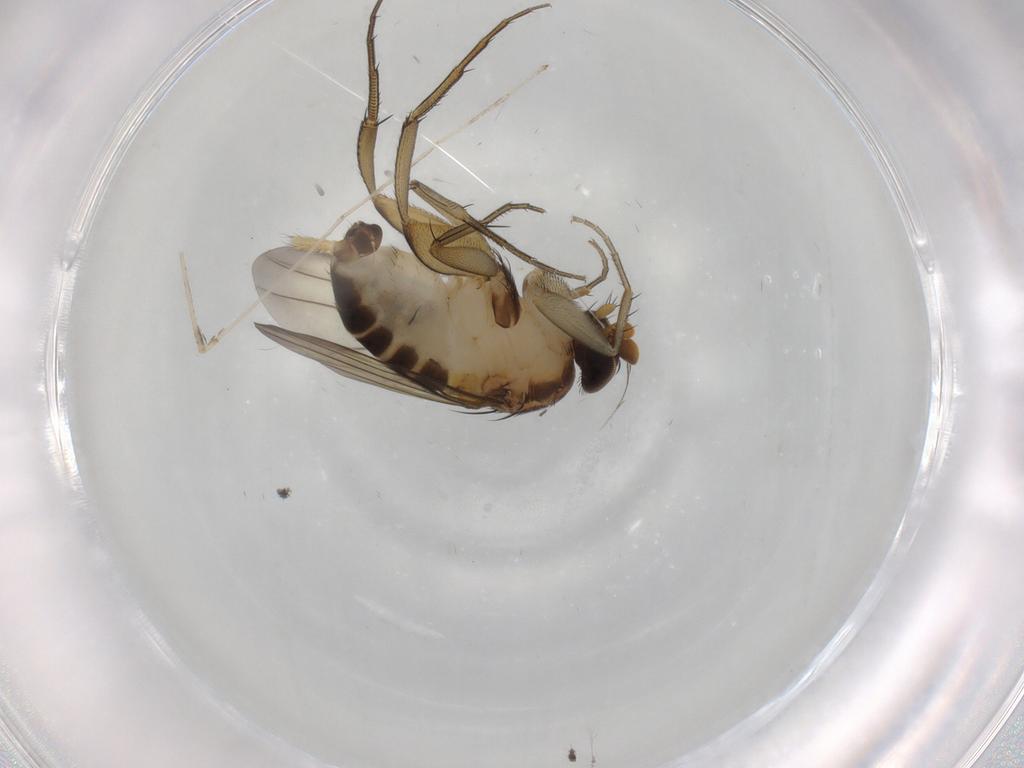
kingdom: Animalia
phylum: Arthropoda
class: Insecta
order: Diptera
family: Phoridae
